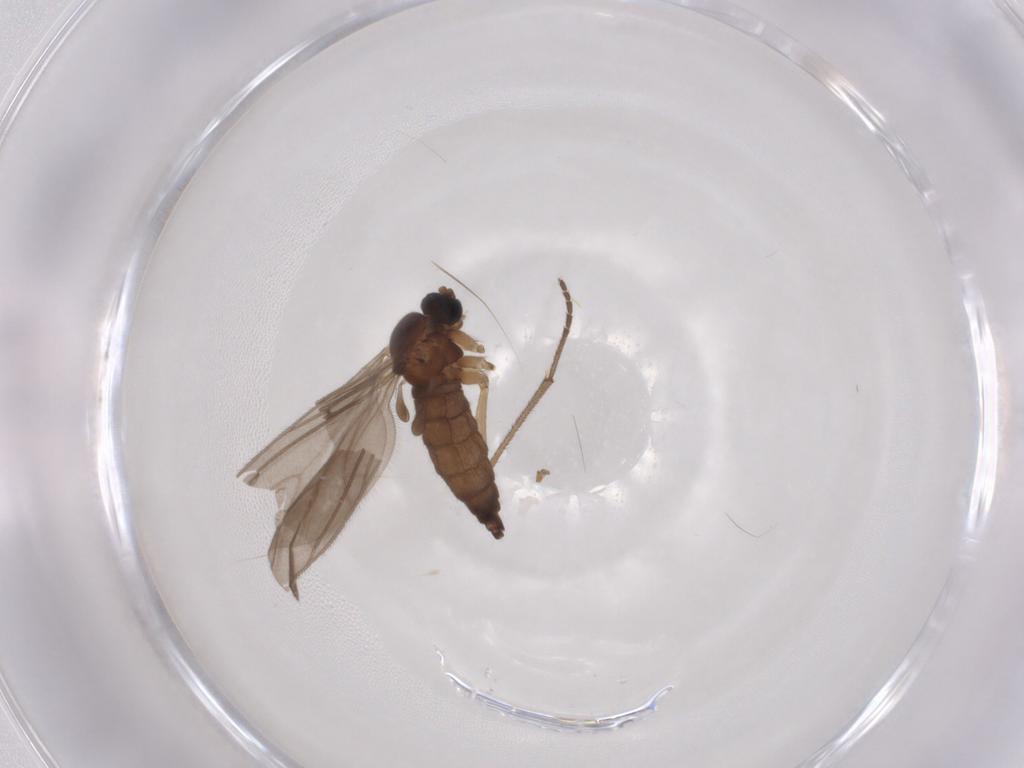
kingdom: Animalia
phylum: Arthropoda
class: Insecta
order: Diptera
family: Sciaridae
